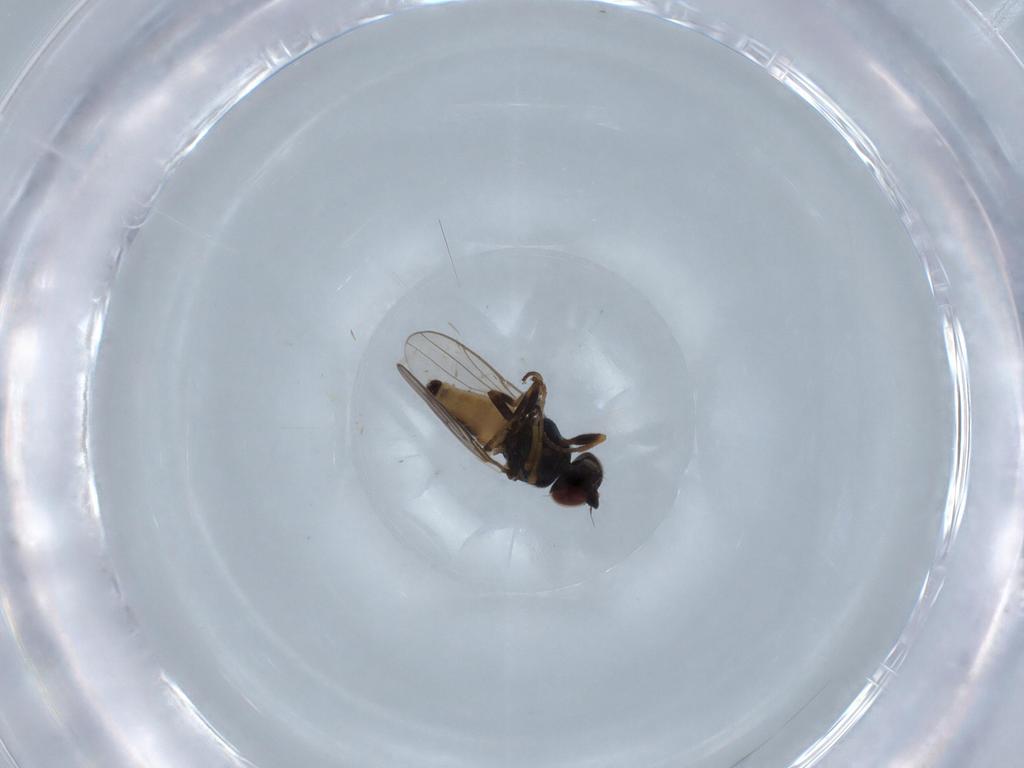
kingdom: Animalia
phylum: Arthropoda
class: Insecta
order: Diptera
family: Chloropidae
